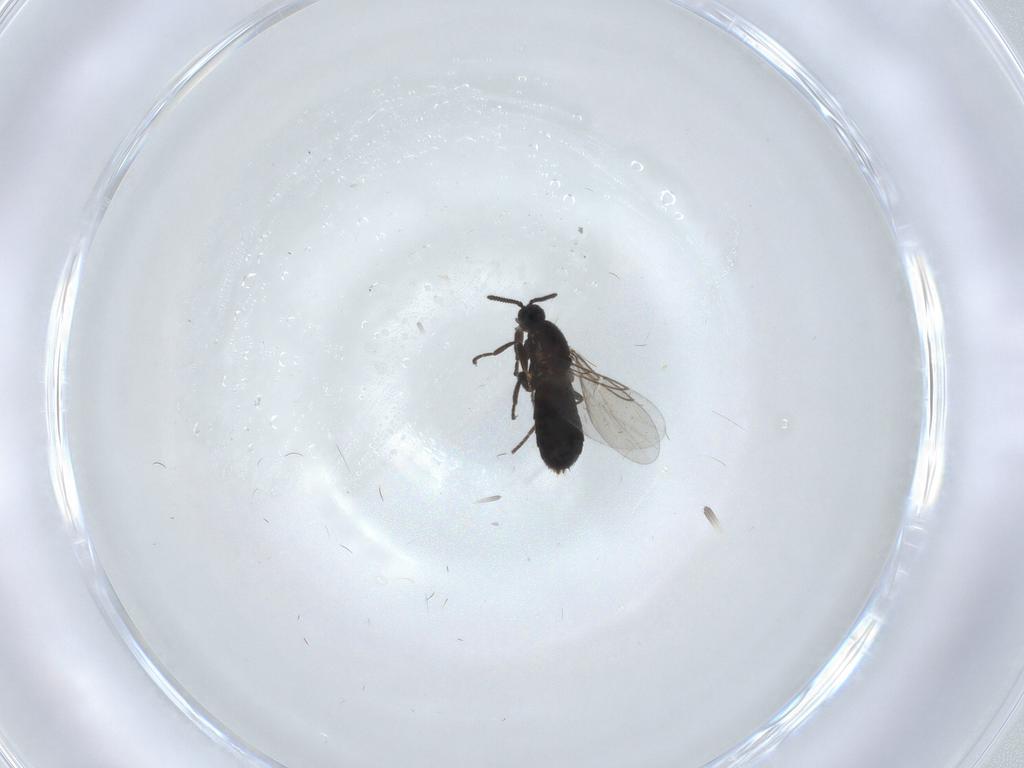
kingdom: Animalia
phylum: Arthropoda
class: Insecta
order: Diptera
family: Scatopsidae
